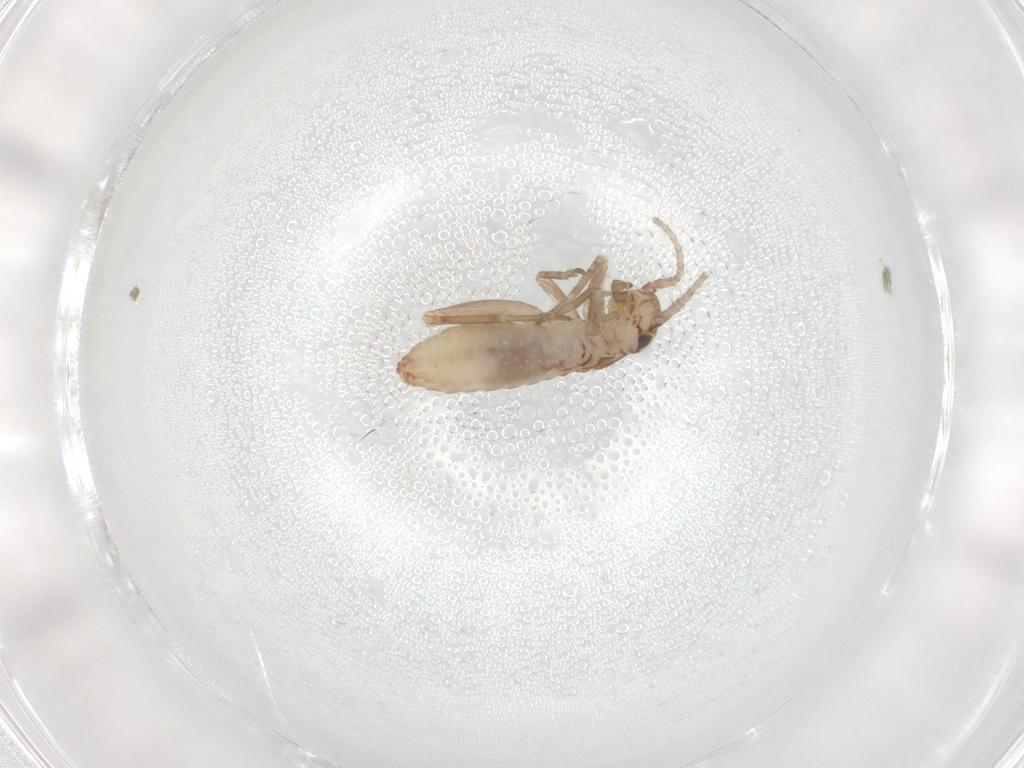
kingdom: Animalia
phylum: Arthropoda
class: Insecta
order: Orthoptera
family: Mogoplistidae
